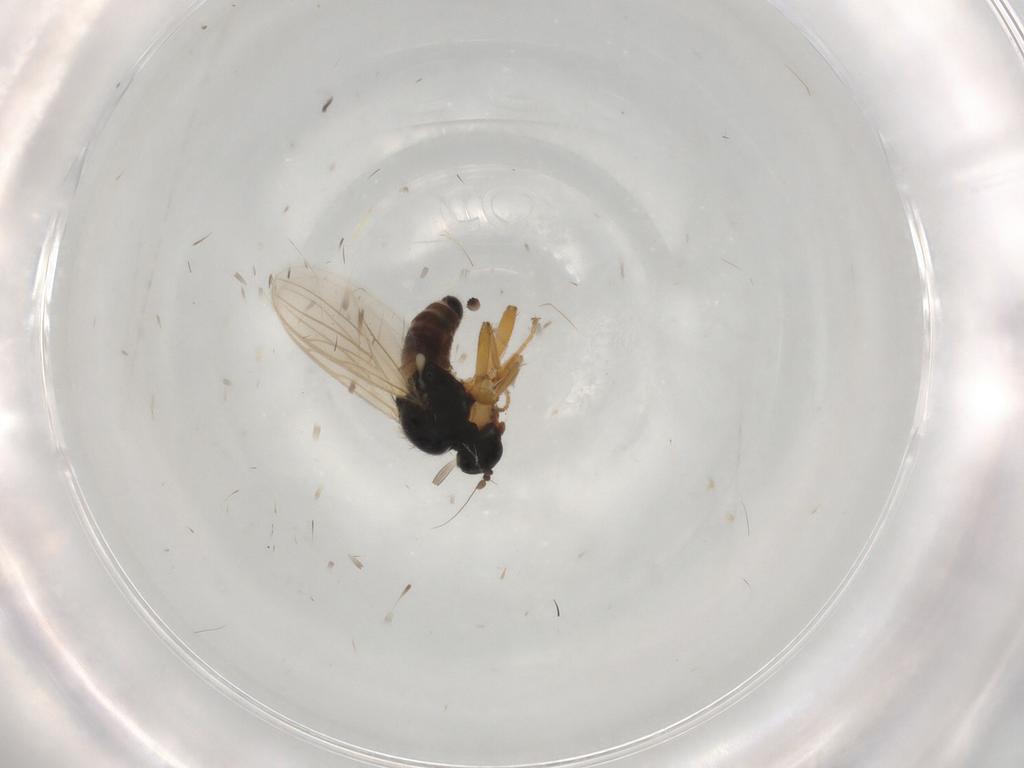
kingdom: Animalia
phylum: Arthropoda
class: Insecta
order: Diptera
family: Hybotidae
